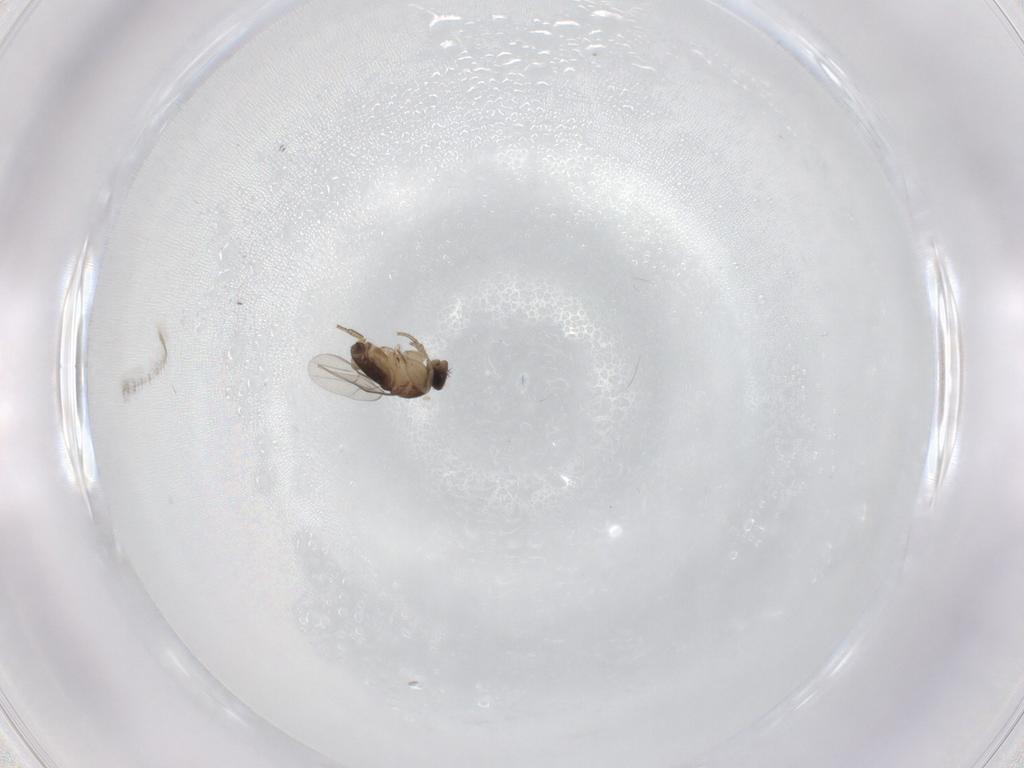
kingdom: Animalia
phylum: Arthropoda
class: Insecta
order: Diptera
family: Phoridae
